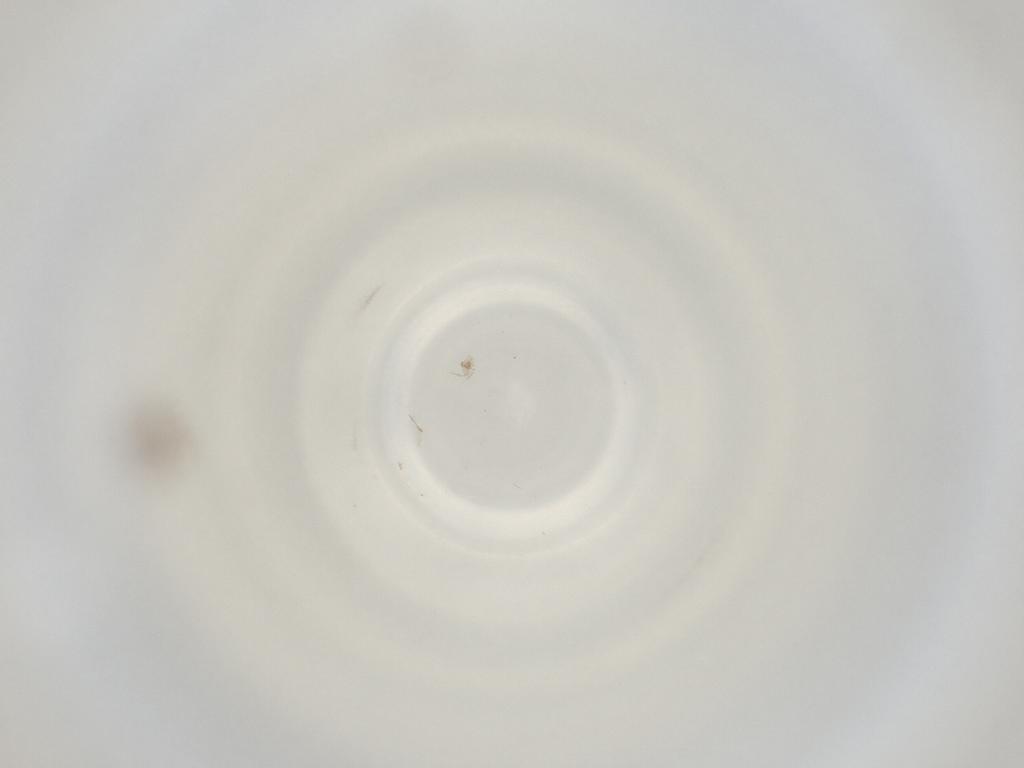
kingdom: Animalia
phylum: Arthropoda
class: Insecta
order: Diptera
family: Cecidomyiidae
